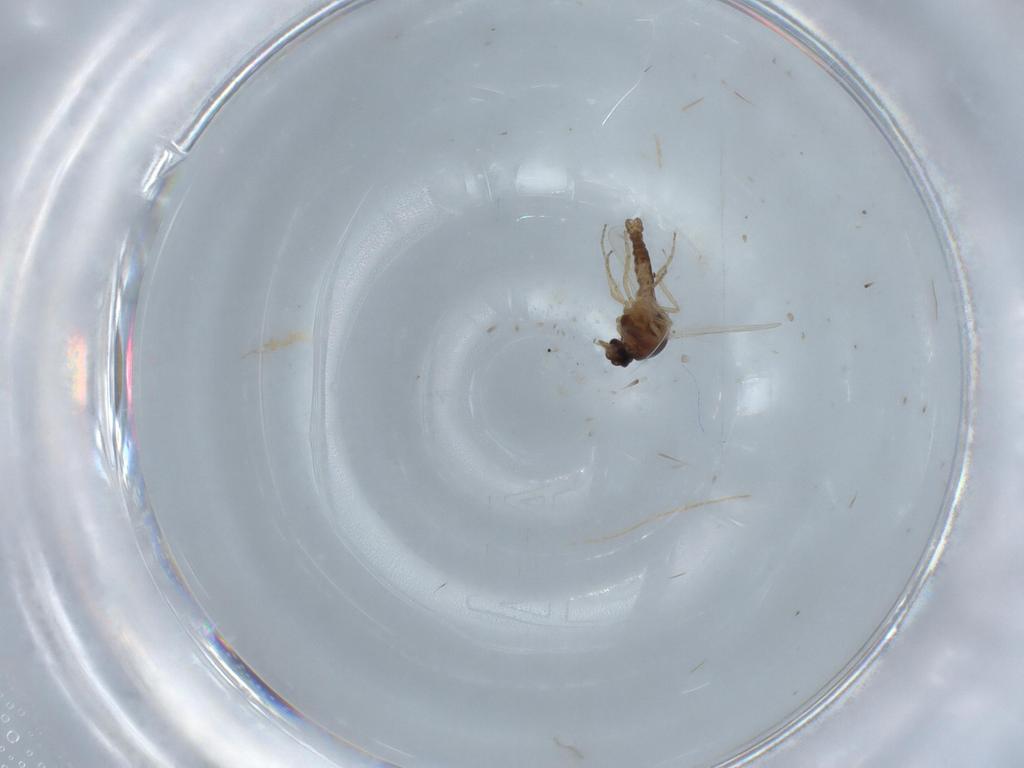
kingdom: Animalia
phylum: Arthropoda
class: Insecta
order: Diptera
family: Ceratopogonidae
